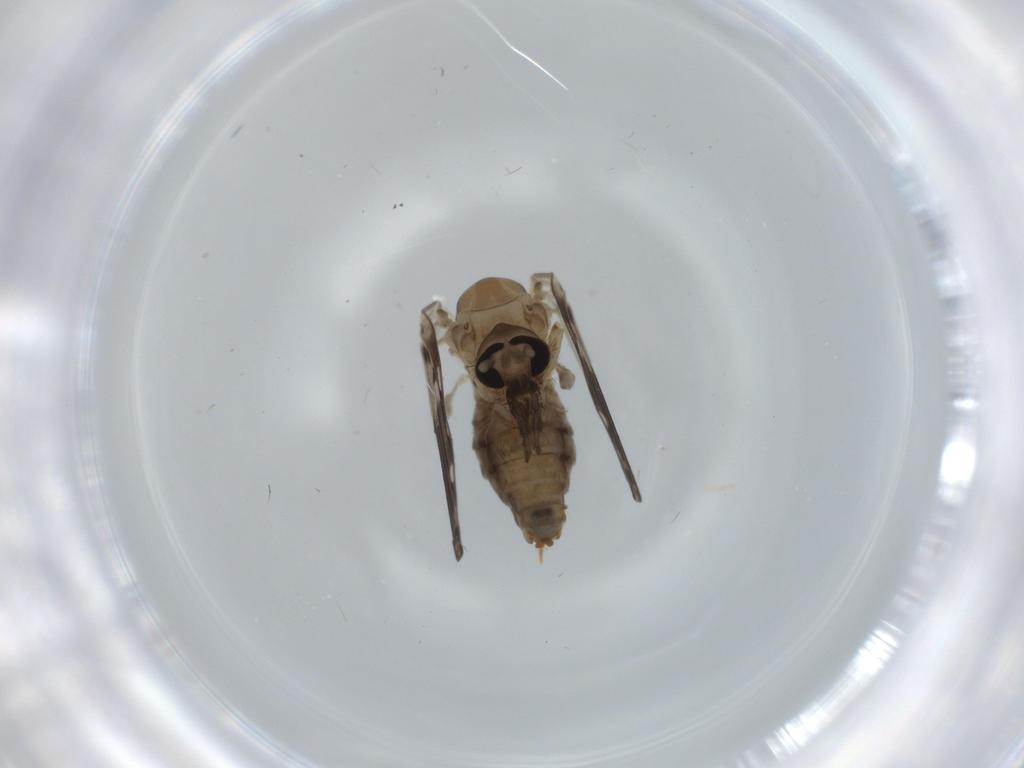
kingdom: Animalia
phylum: Arthropoda
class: Insecta
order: Diptera
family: Psychodidae
